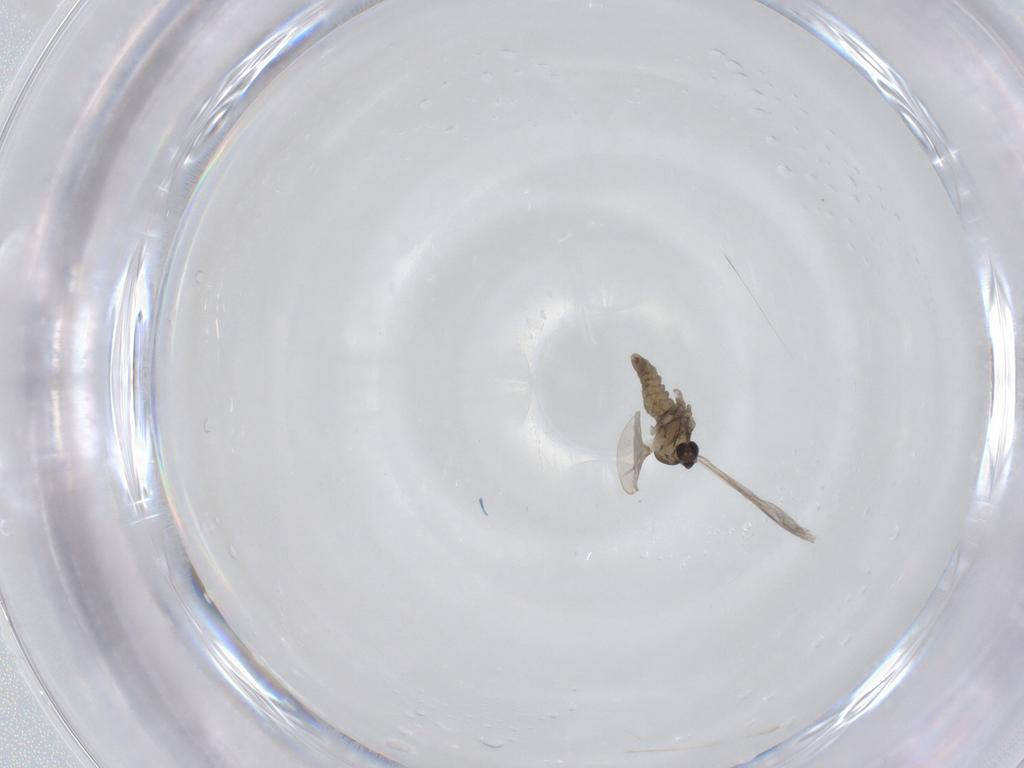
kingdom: Animalia
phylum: Arthropoda
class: Insecta
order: Diptera
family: Cecidomyiidae
